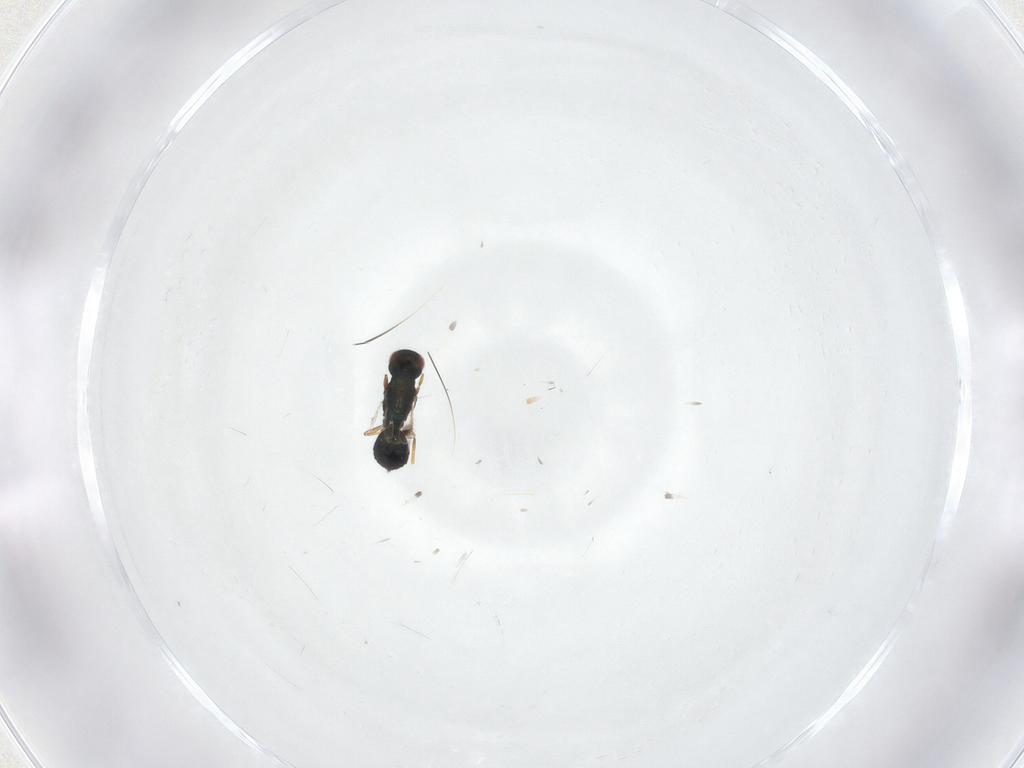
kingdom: Animalia
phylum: Arthropoda
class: Insecta
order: Hymenoptera
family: Eulophidae
